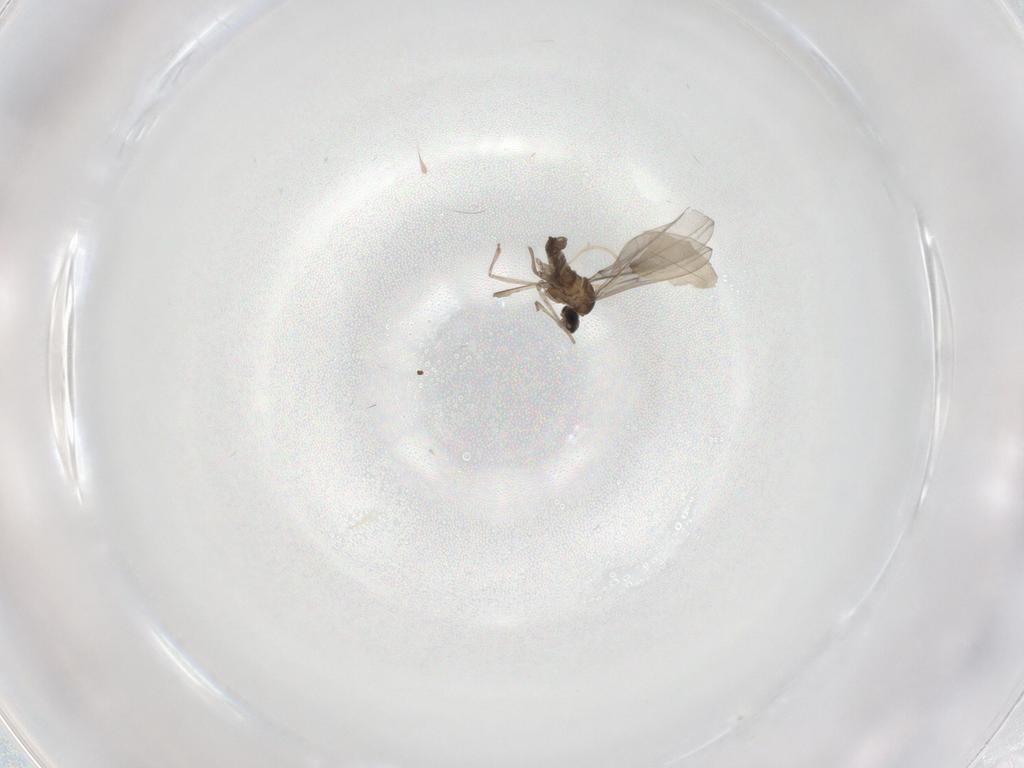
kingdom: Animalia
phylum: Arthropoda
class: Insecta
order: Diptera
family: Cecidomyiidae
